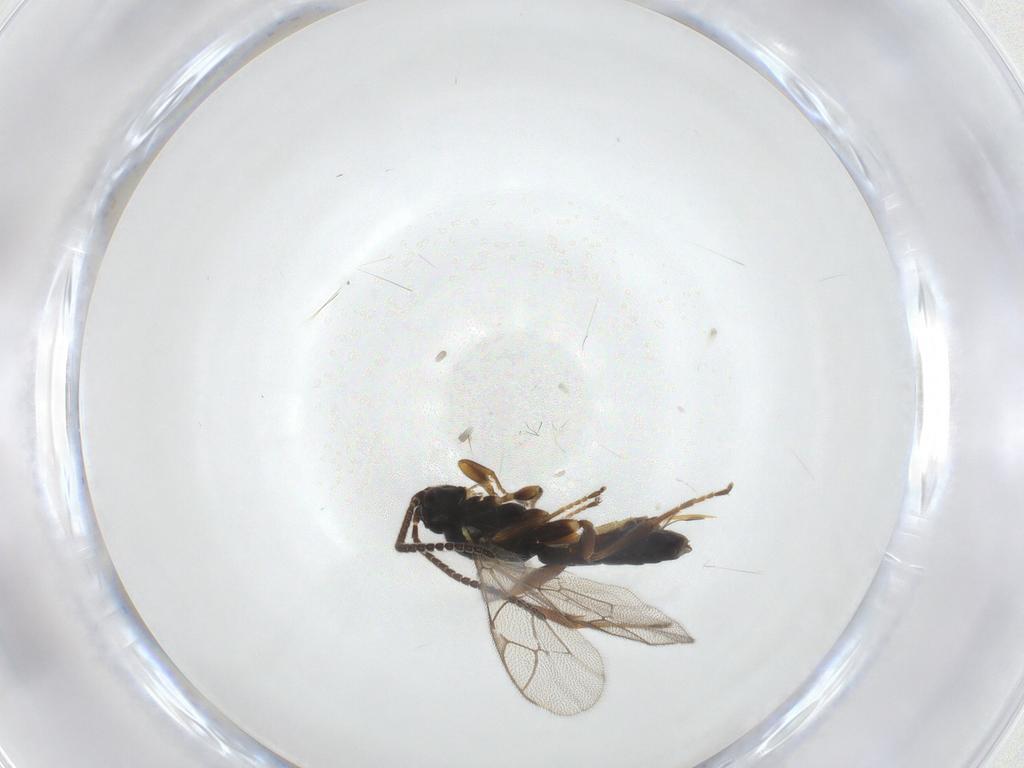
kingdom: Animalia
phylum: Arthropoda
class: Insecta
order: Hymenoptera
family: Ichneumonidae
